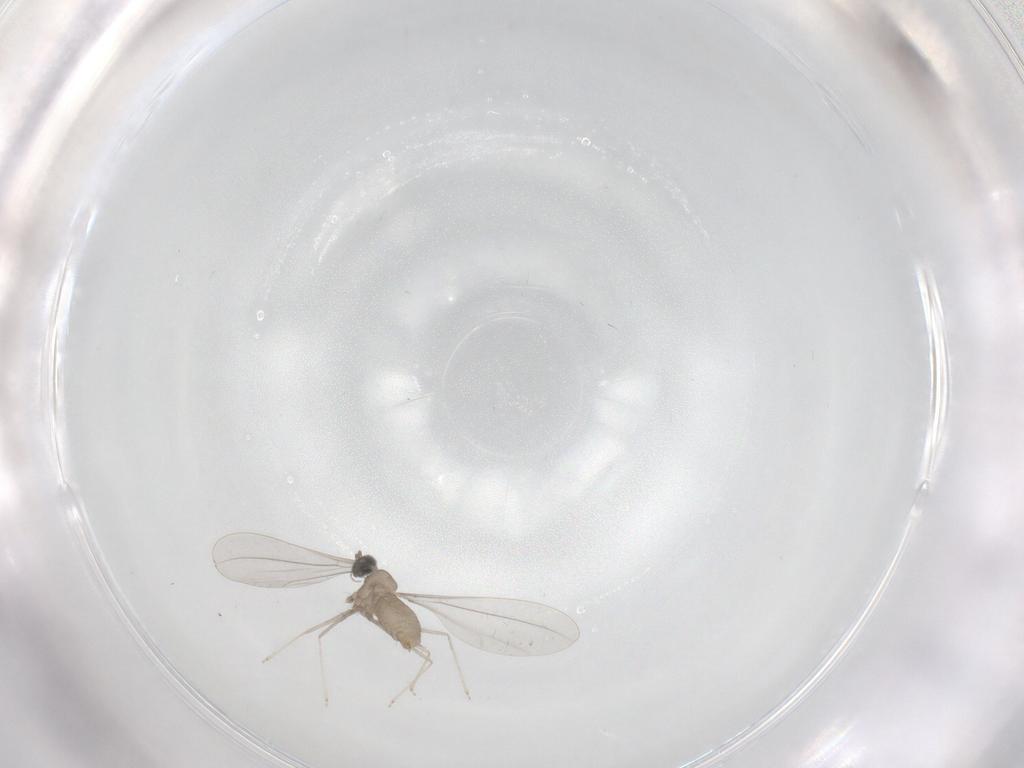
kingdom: Animalia
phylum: Arthropoda
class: Insecta
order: Diptera
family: Cecidomyiidae
